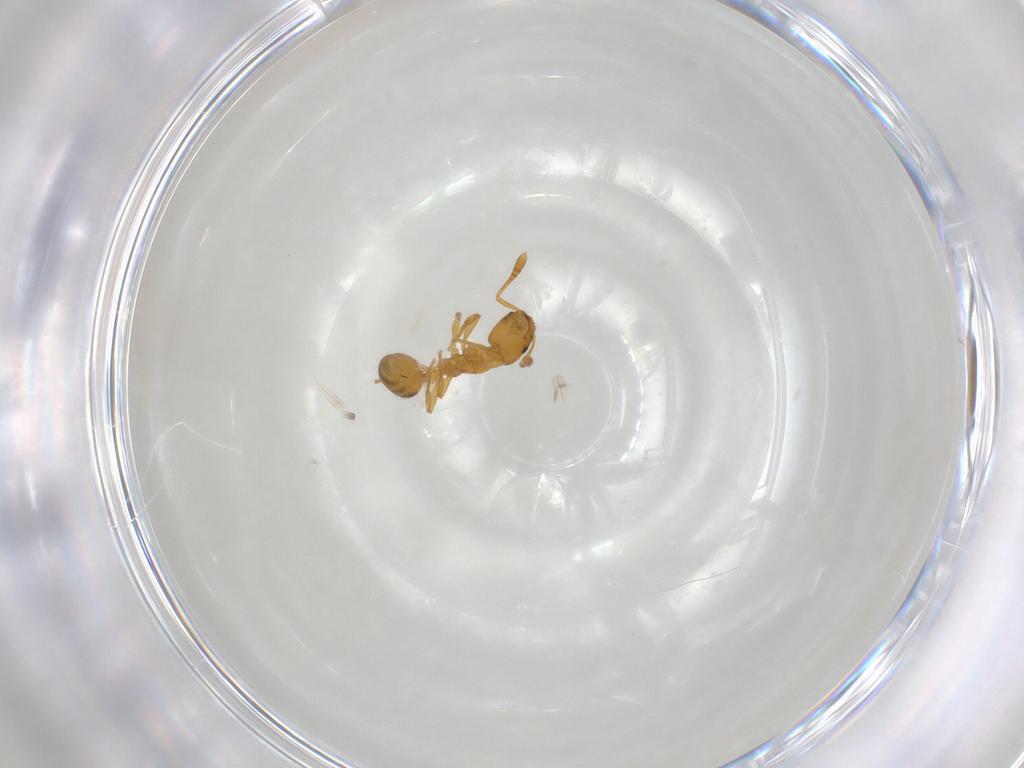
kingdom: Animalia
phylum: Arthropoda
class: Insecta
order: Hymenoptera
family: Formicidae
